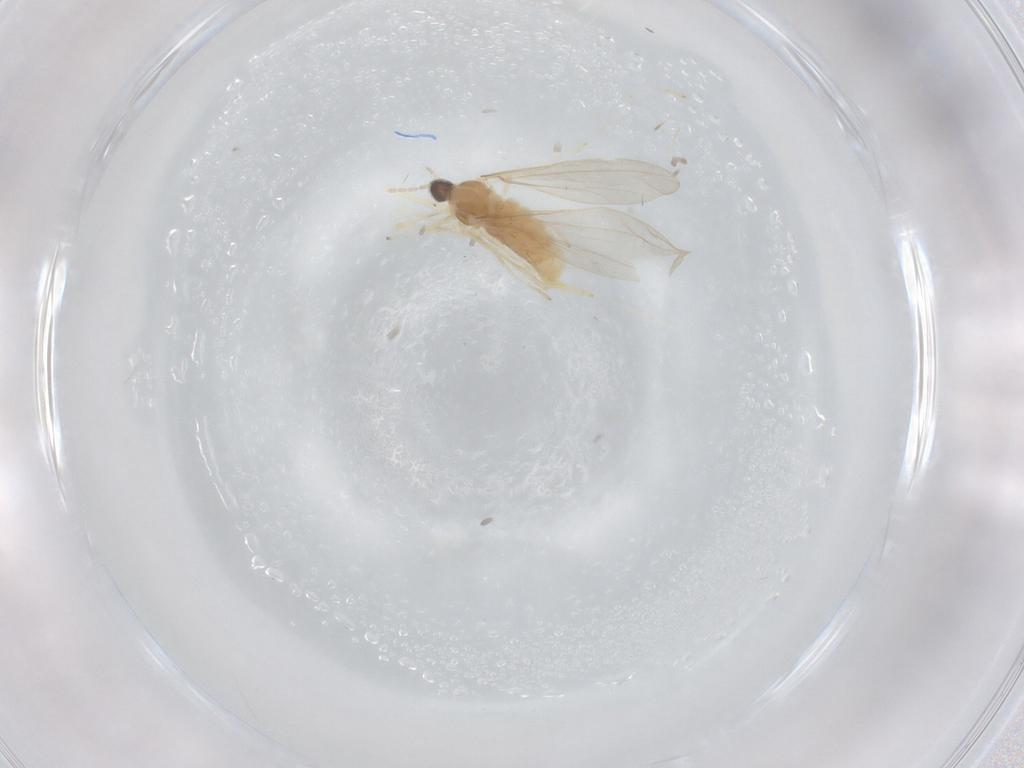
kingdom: Animalia
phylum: Arthropoda
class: Insecta
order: Diptera
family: Cecidomyiidae
